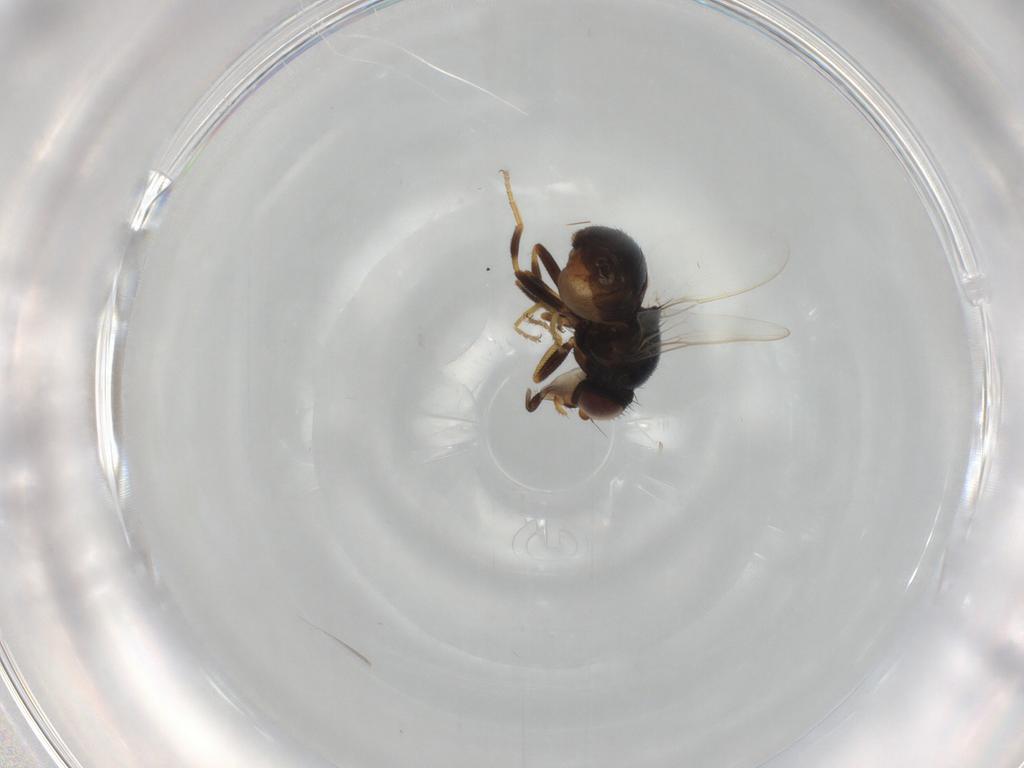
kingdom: Animalia
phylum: Arthropoda
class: Insecta
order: Diptera
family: Chloropidae
